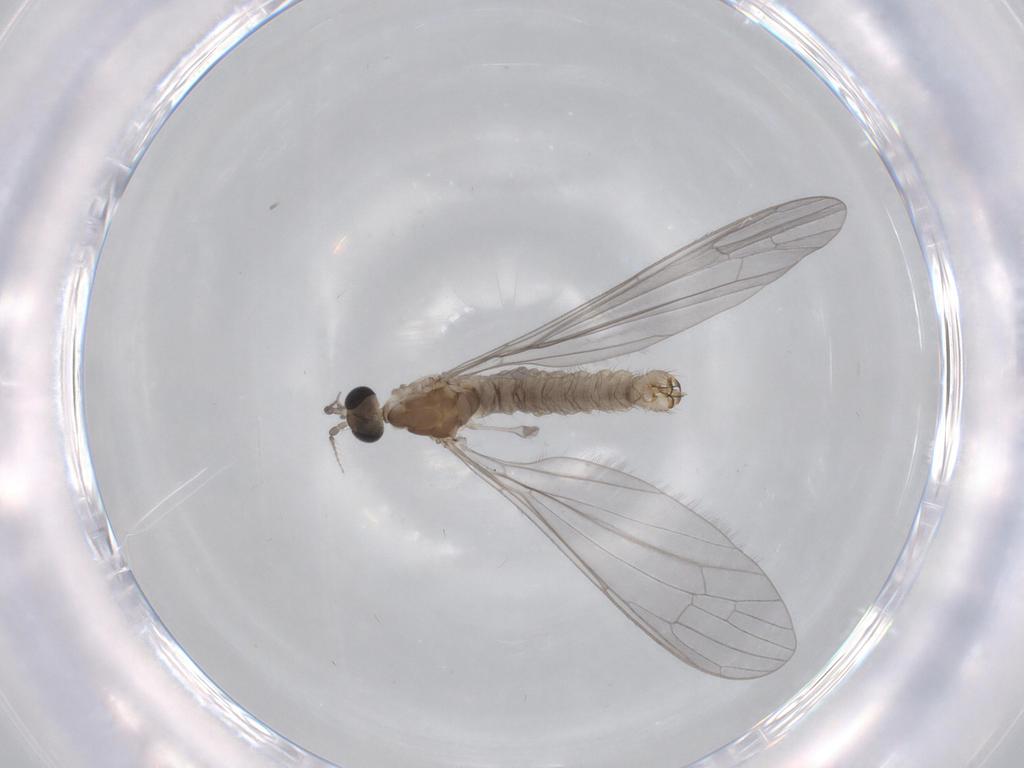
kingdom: Animalia
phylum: Arthropoda
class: Insecta
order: Diptera
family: Limoniidae
